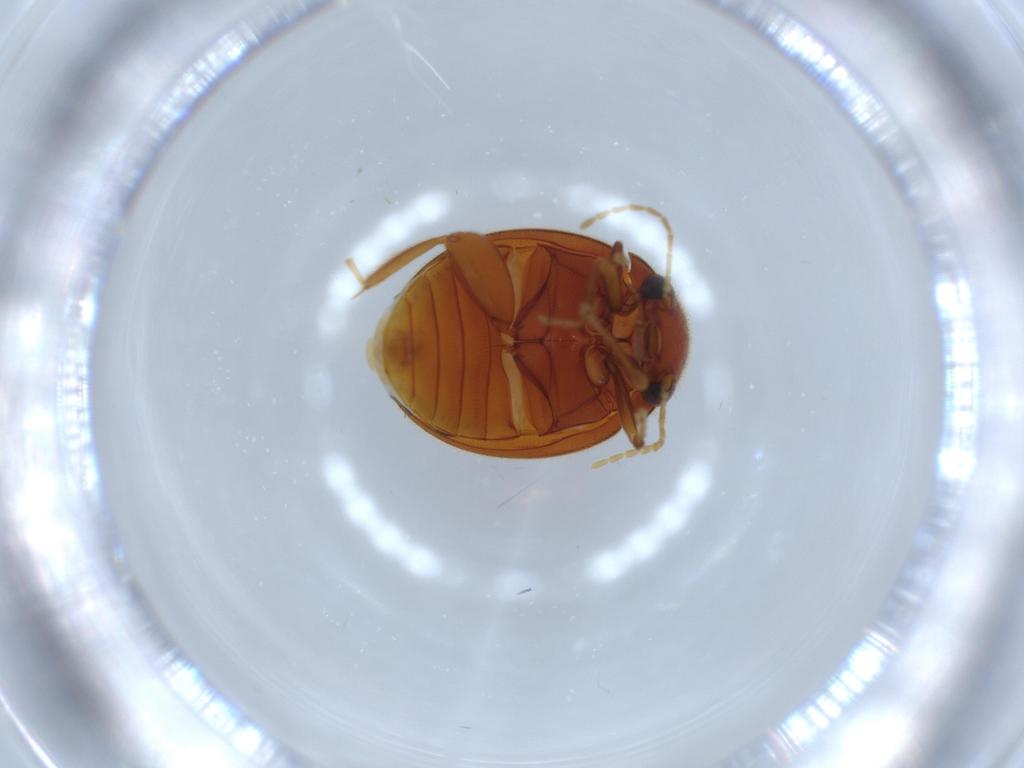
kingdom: Animalia
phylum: Arthropoda
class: Insecta
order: Coleoptera
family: Scirtidae
